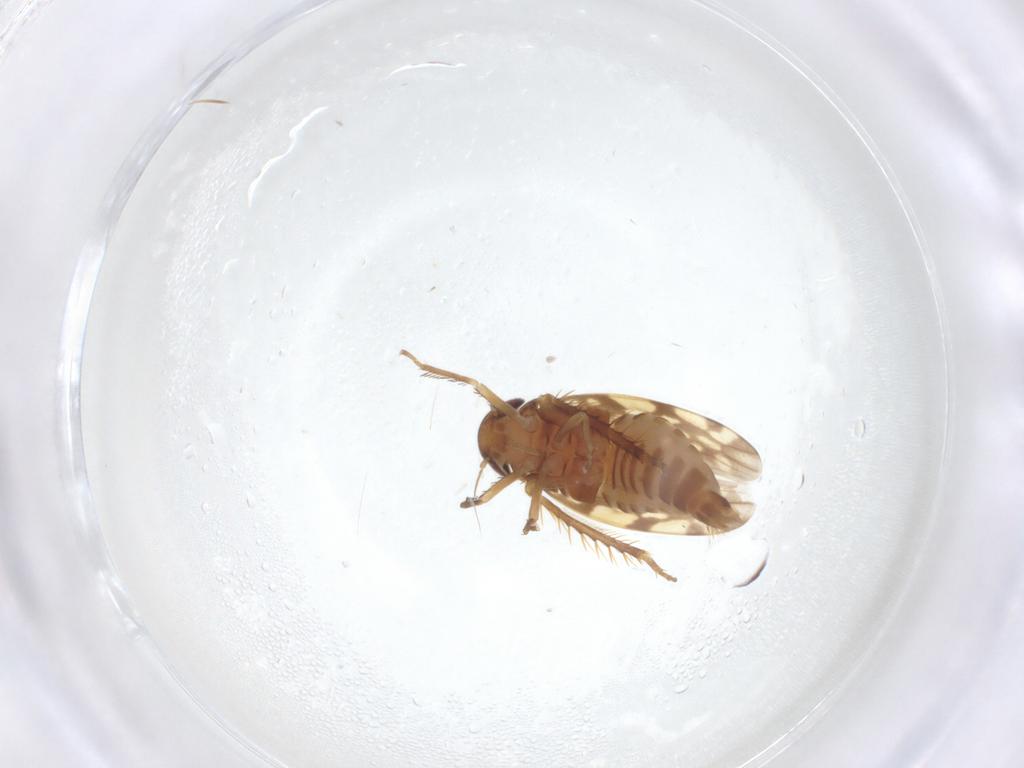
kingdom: Animalia
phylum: Arthropoda
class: Insecta
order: Hemiptera
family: Cicadellidae
